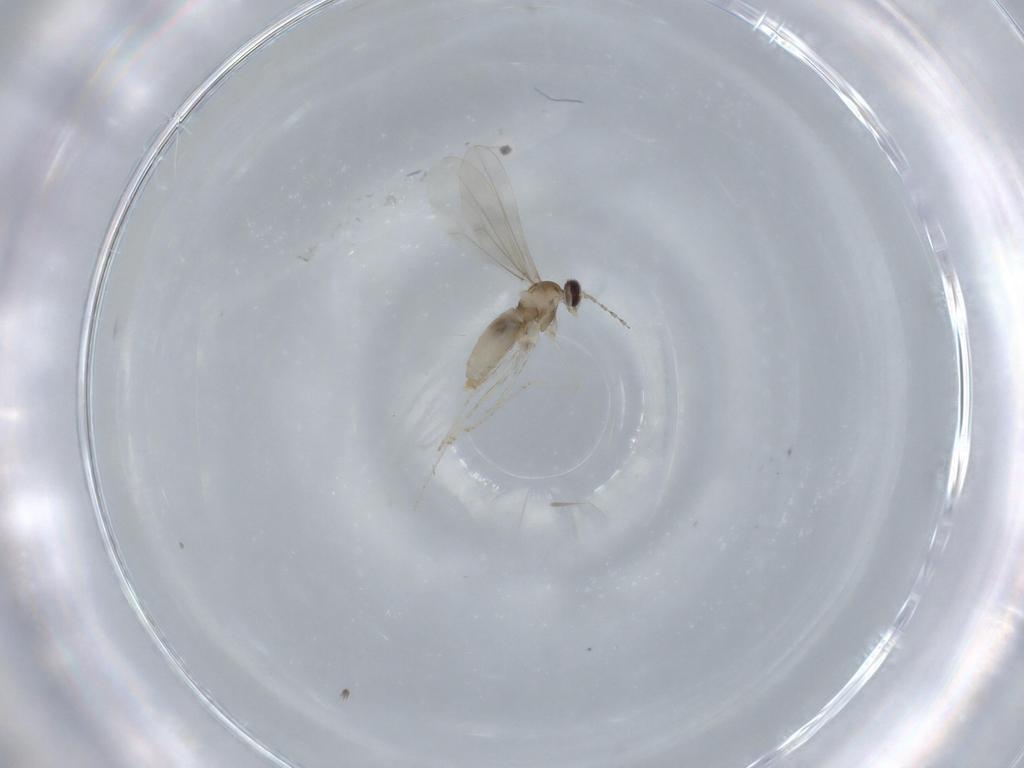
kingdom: Animalia
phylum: Arthropoda
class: Insecta
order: Diptera
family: Cecidomyiidae
